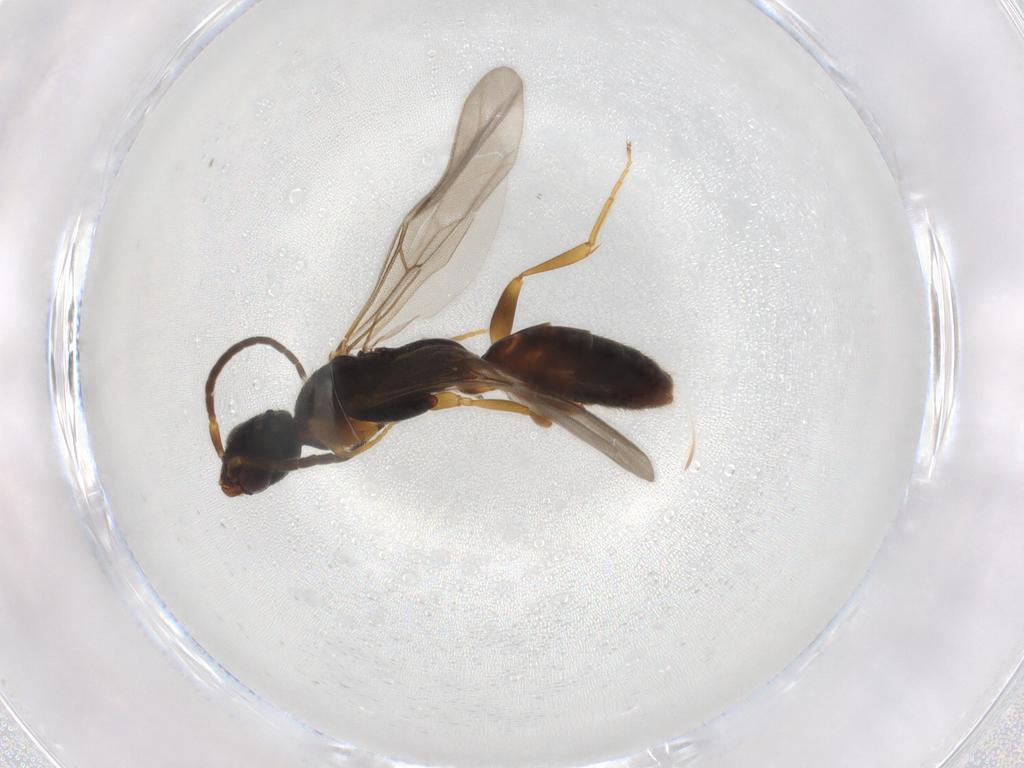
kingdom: Animalia
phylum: Arthropoda
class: Insecta
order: Hymenoptera
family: Bethylidae
